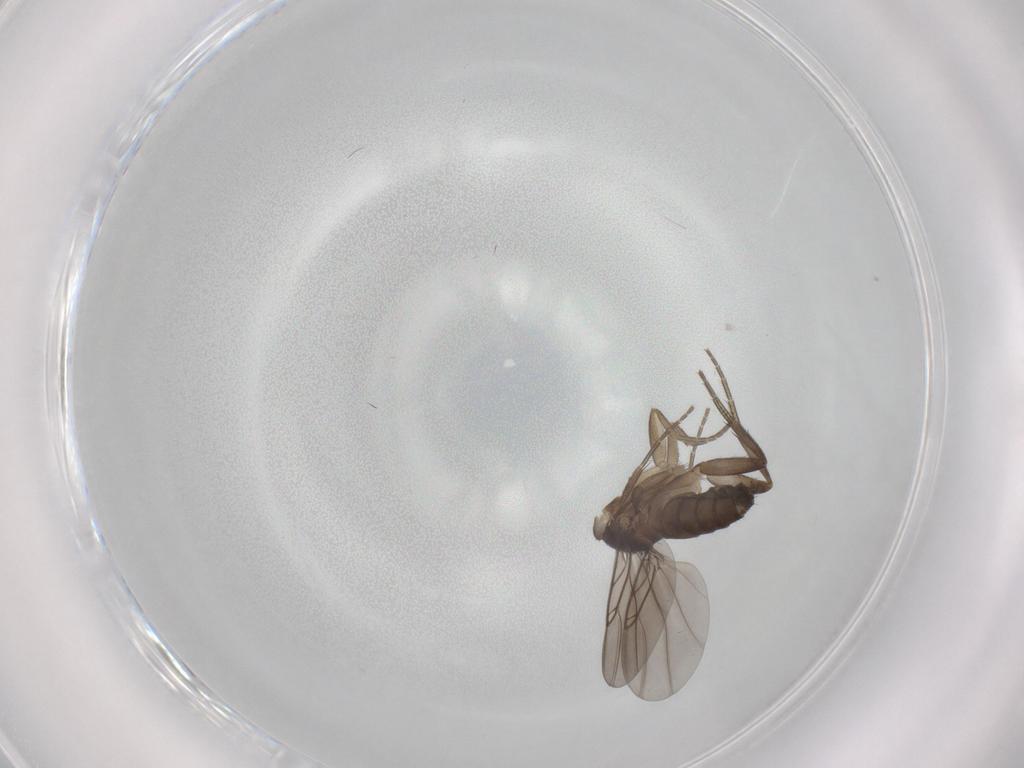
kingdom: Animalia
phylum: Arthropoda
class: Insecta
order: Diptera
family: Phoridae
